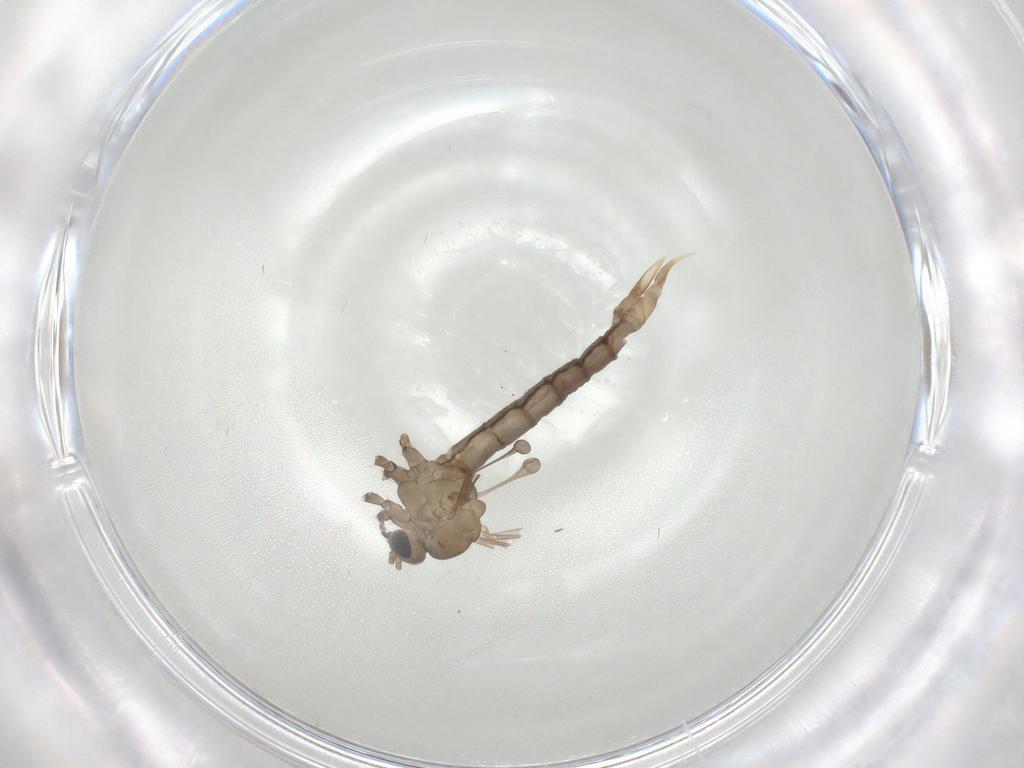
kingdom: Animalia
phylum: Arthropoda
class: Insecta
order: Diptera
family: Limoniidae
